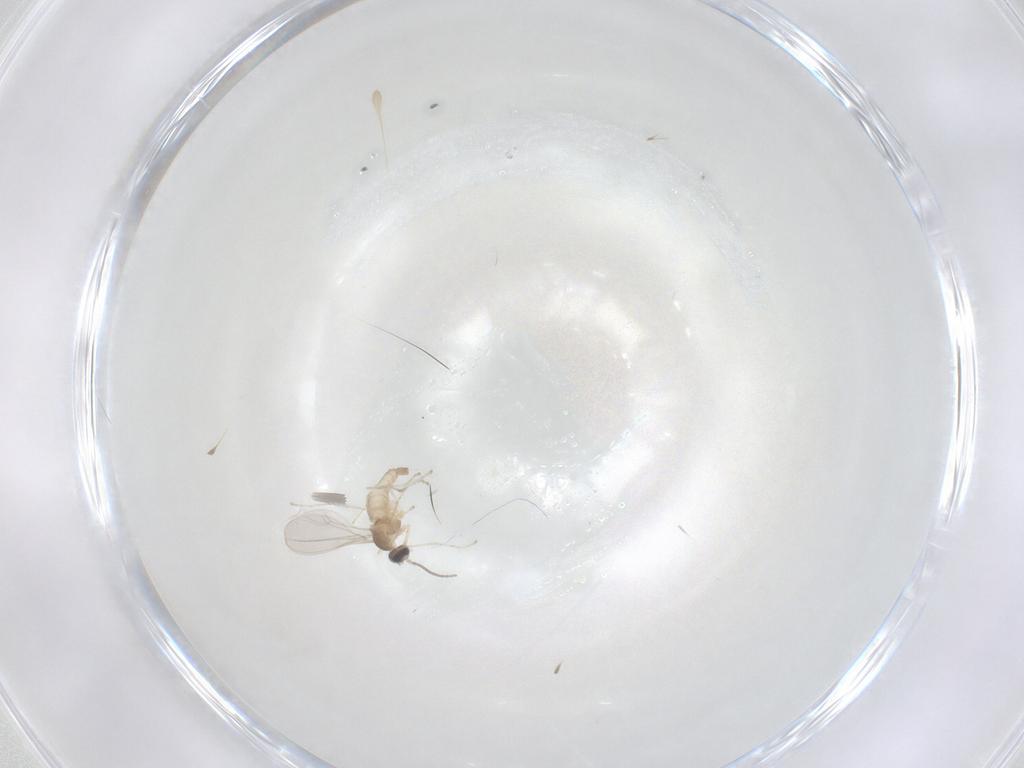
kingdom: Animalia
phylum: Arthropoda
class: Insecta
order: Diptera
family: Cecidomyiidae
